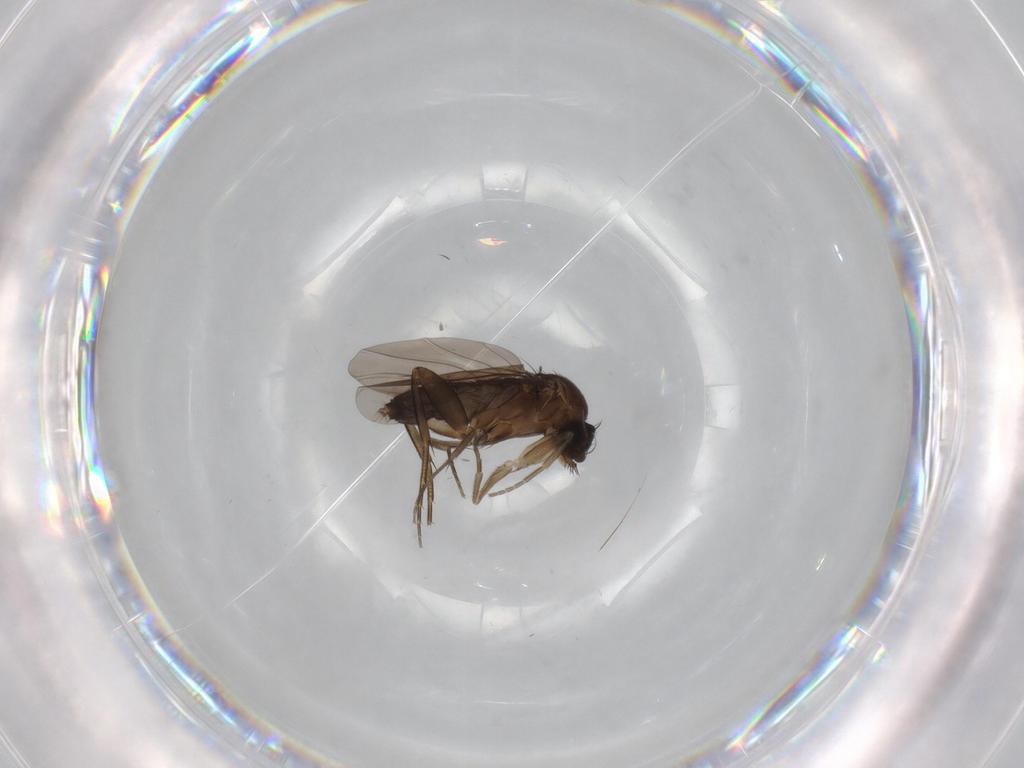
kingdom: Animalia
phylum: Arthropoda
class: Insecta
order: Diptera
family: Phoridae
